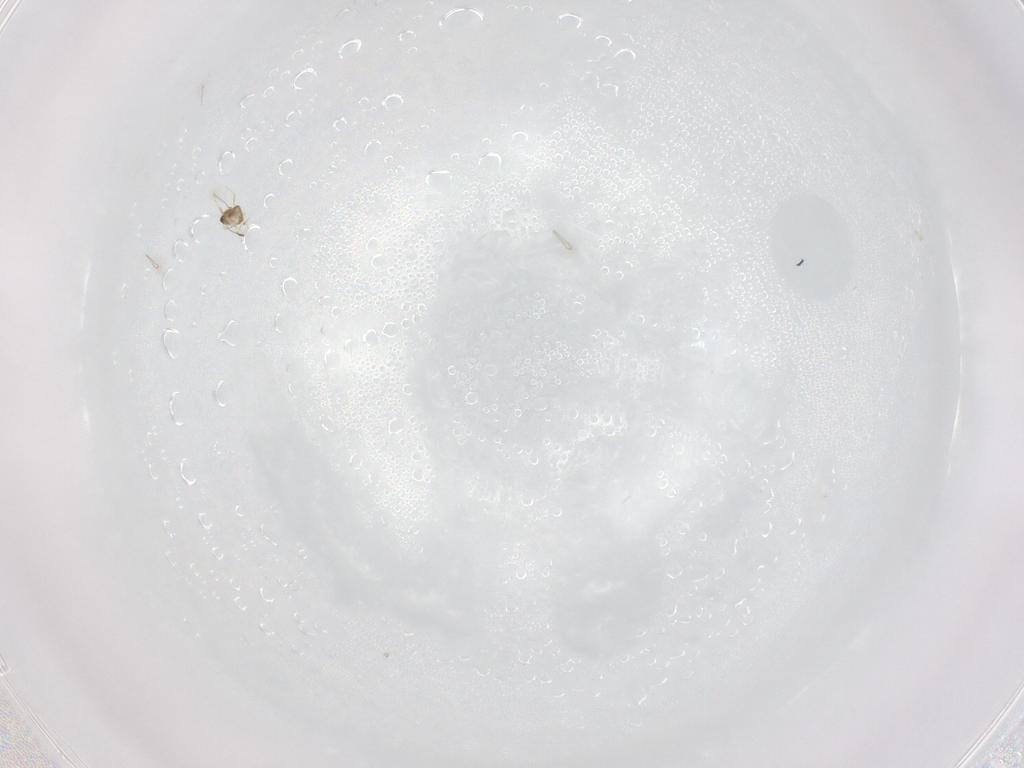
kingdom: Animalia
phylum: Arthropoda
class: Insecta
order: Hymenoptera
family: Mymaridae
